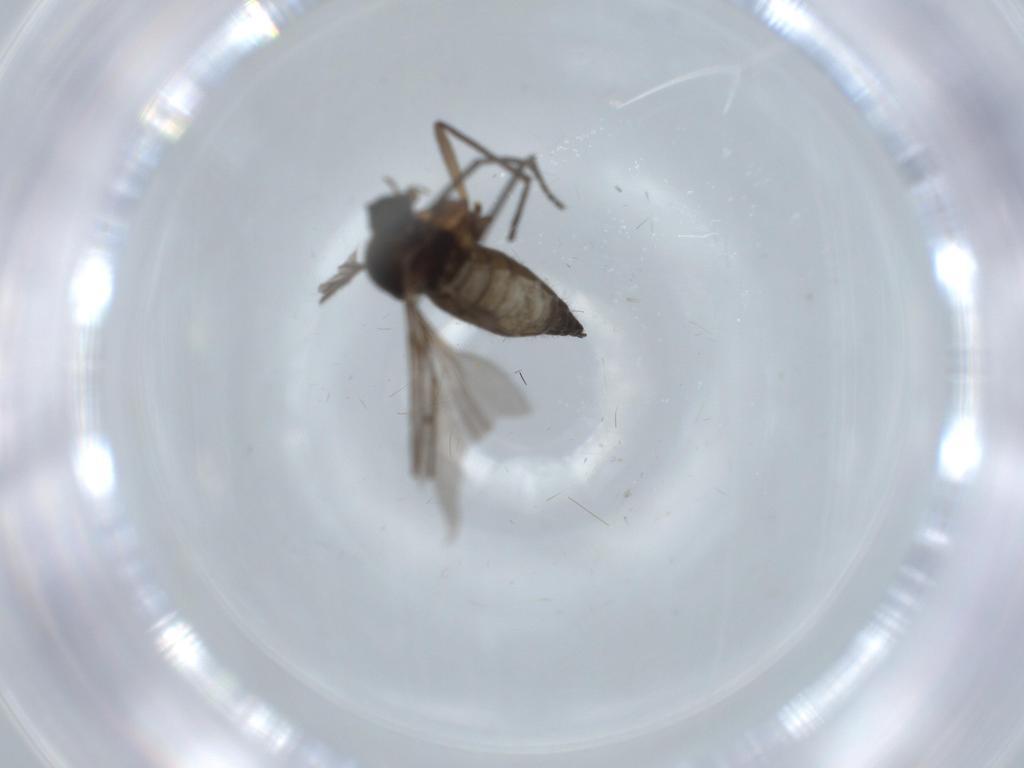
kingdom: Animalia
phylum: Arthropoda
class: Insecta
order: Diptera
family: Sciaridae
